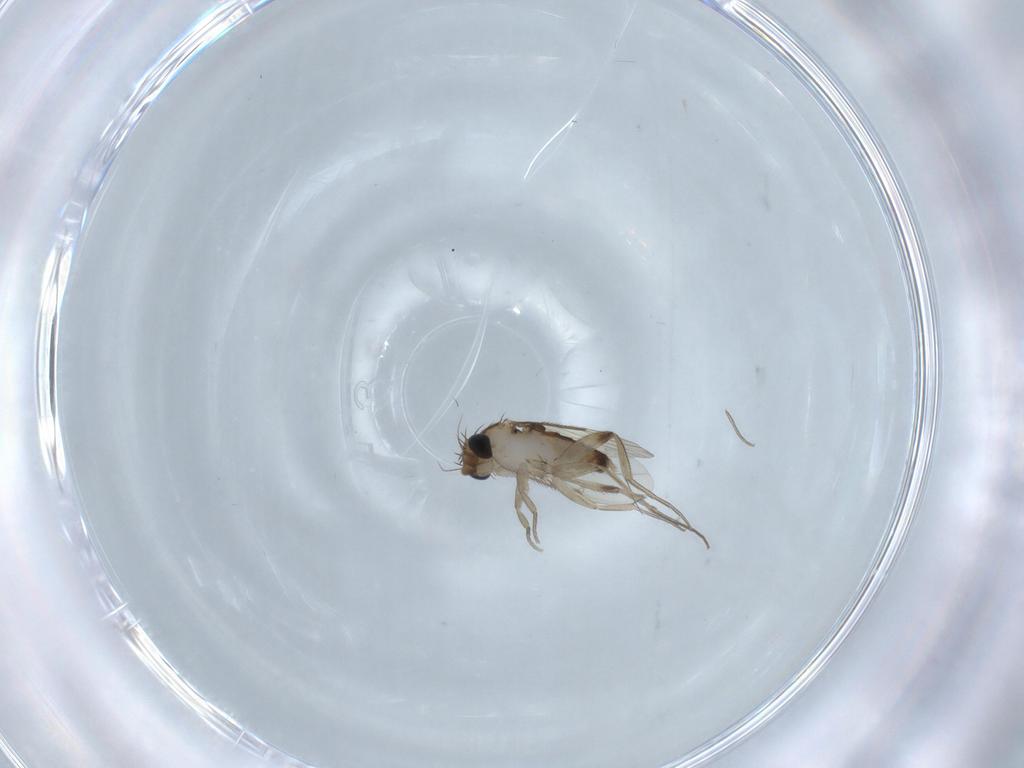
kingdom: Animalia
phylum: Arthropoda
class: Insecta
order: Diptera
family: Phoridae
